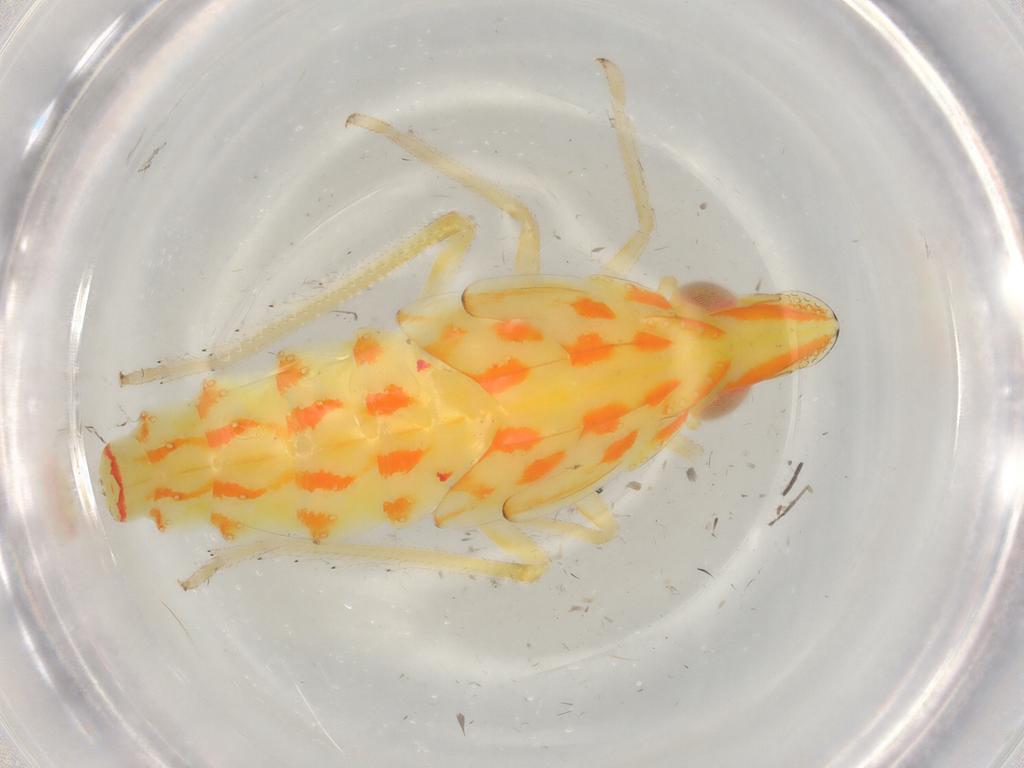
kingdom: Animalia
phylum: Arthropoda
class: Insecta
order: Hemiptera
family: Tropiduchidae
